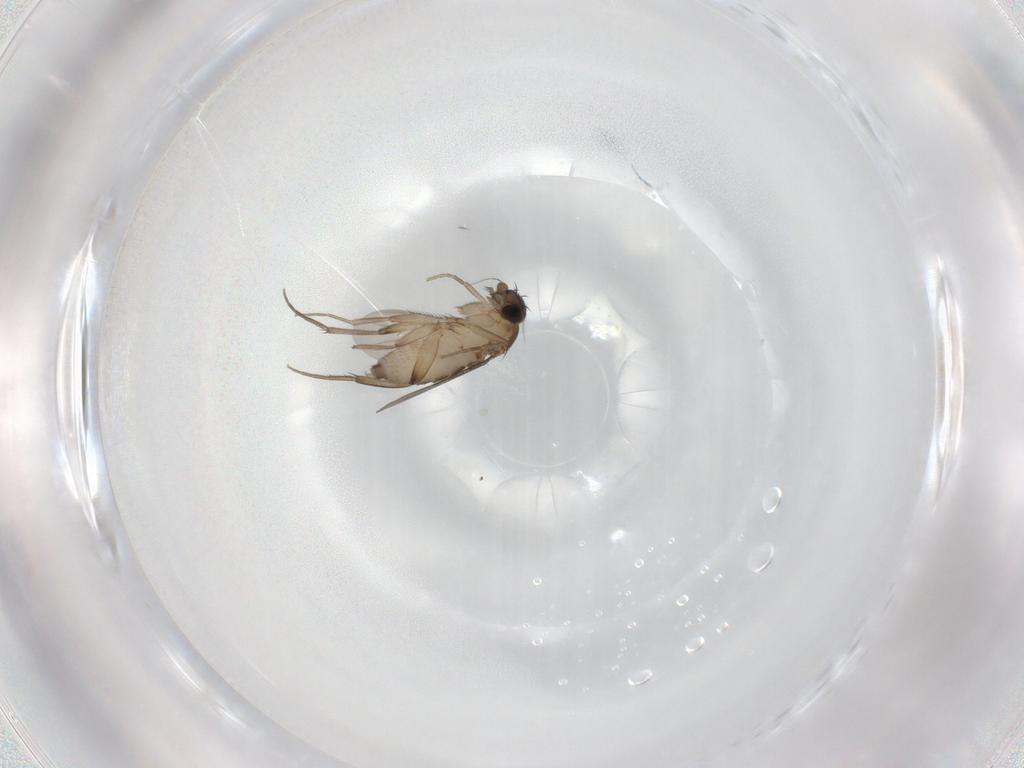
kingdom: Animalia
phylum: Arthropoda
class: Insecta
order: Diptera
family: Phoridae
